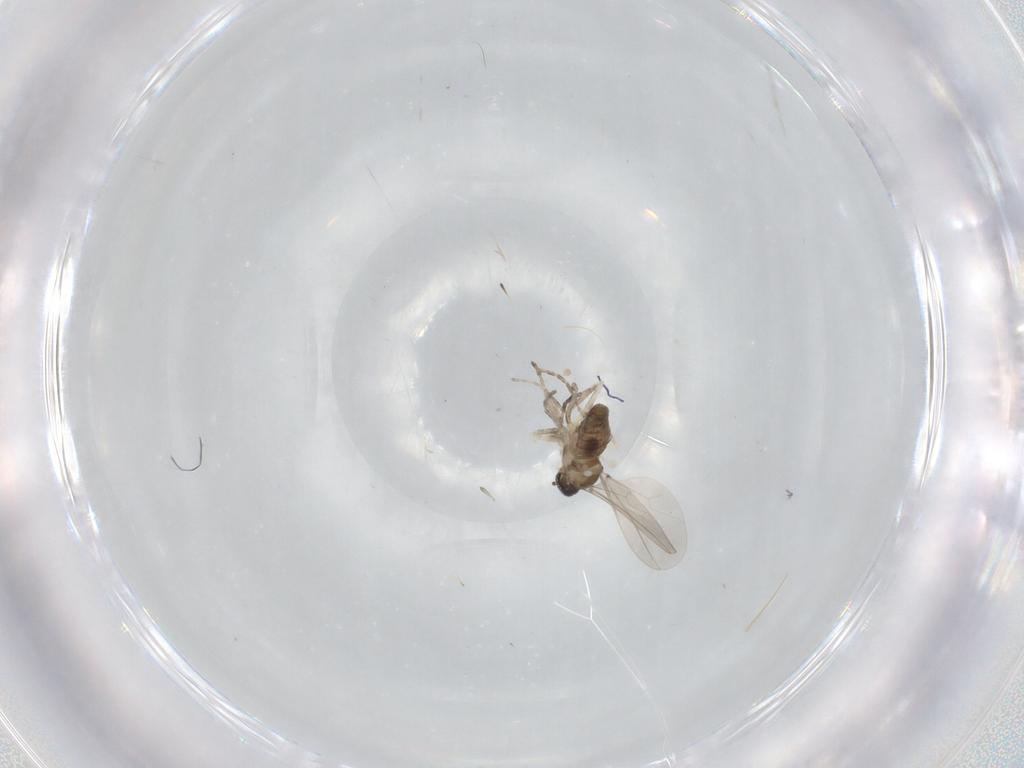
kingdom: Animalia
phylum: Arthropoda
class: Insecta
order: Diptera
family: Cecidomyiidae
